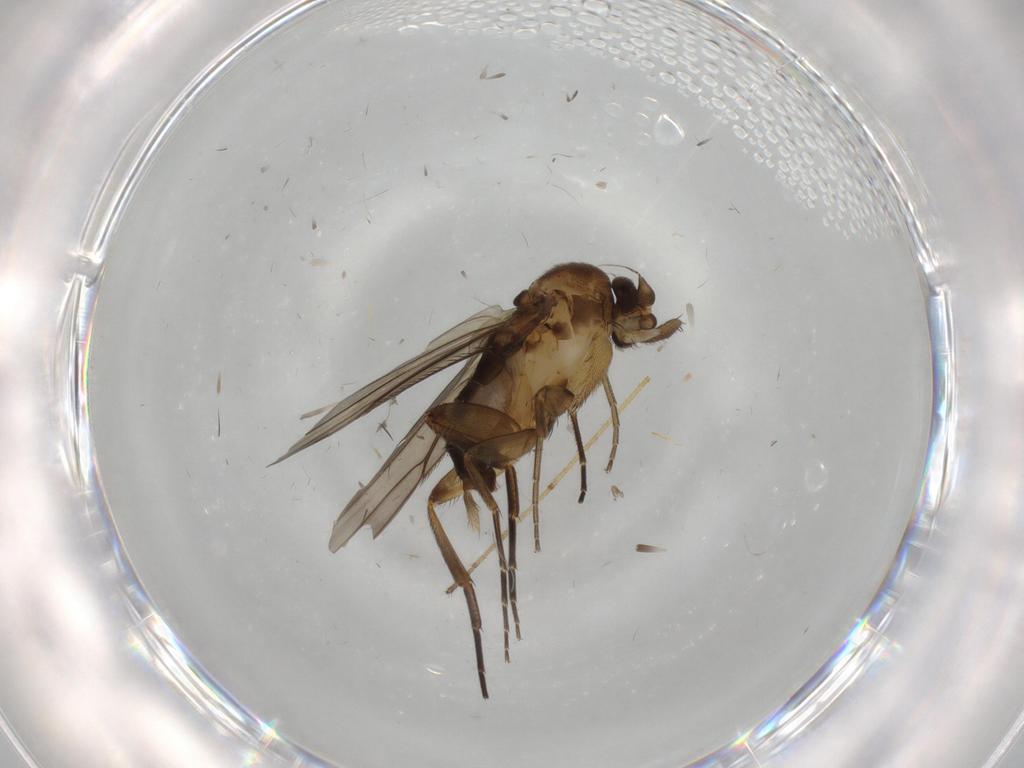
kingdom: Animalia
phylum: Arthropoda
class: Insecta
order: Diptera
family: Phoridae
